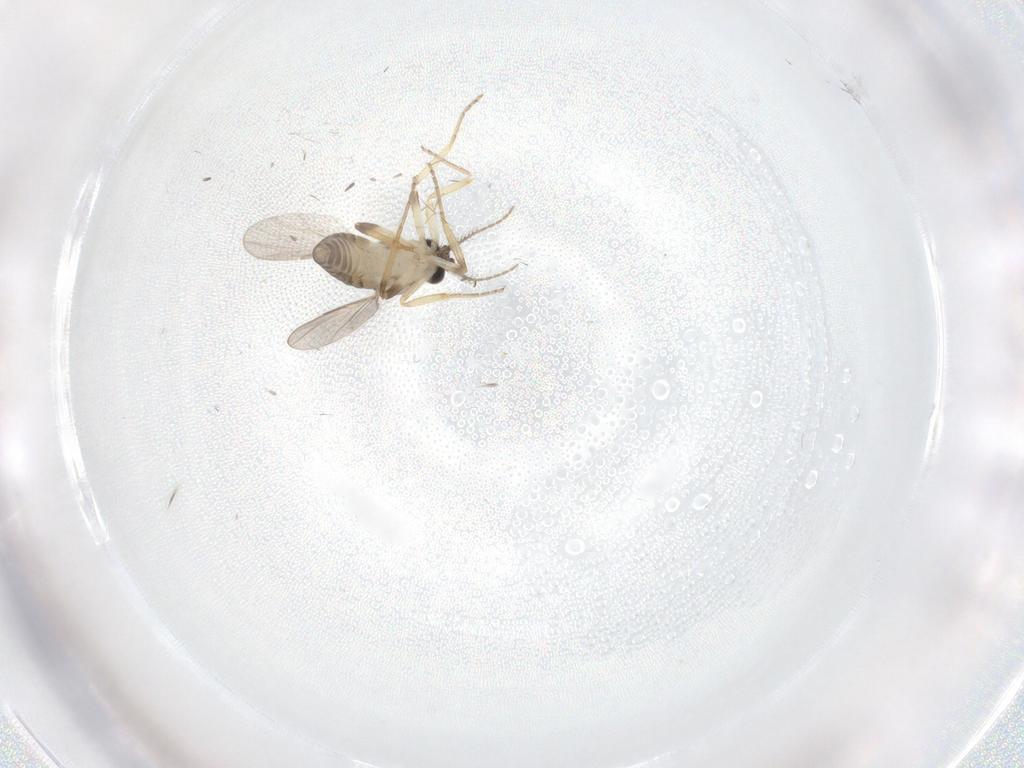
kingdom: Animalia
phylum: Arthropoda
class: Insecta
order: Diptera
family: Ceratopogonidae
